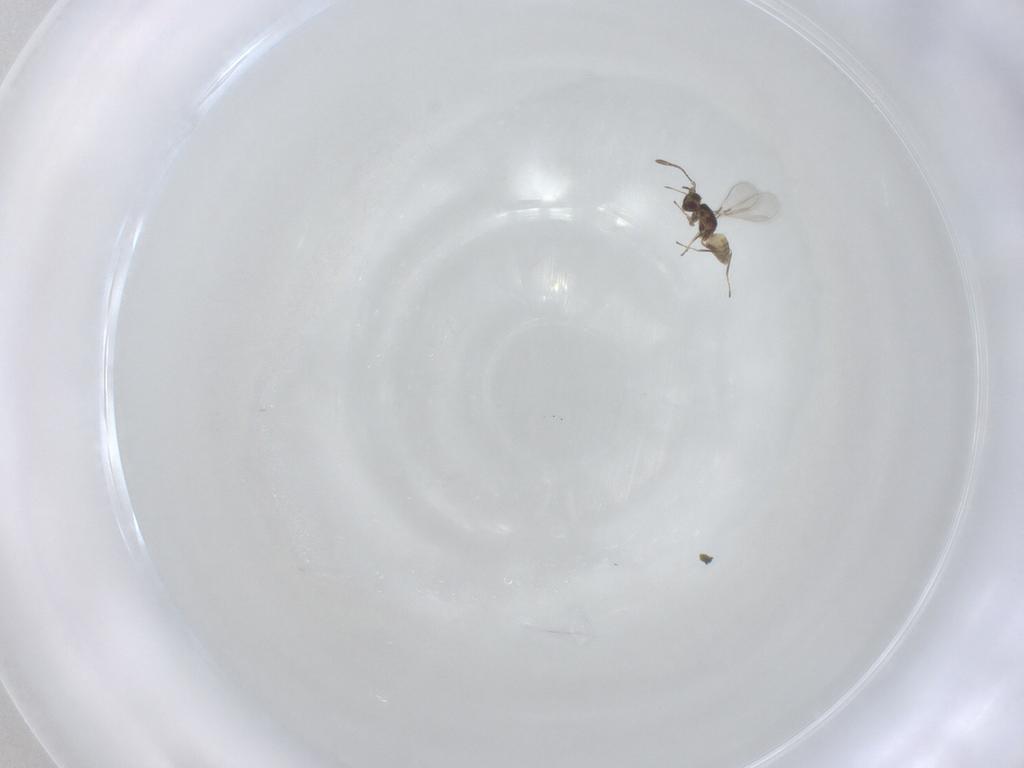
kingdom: Animalia
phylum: Arthropoda
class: Insecta
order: Hymenoptera
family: Mymaridae
